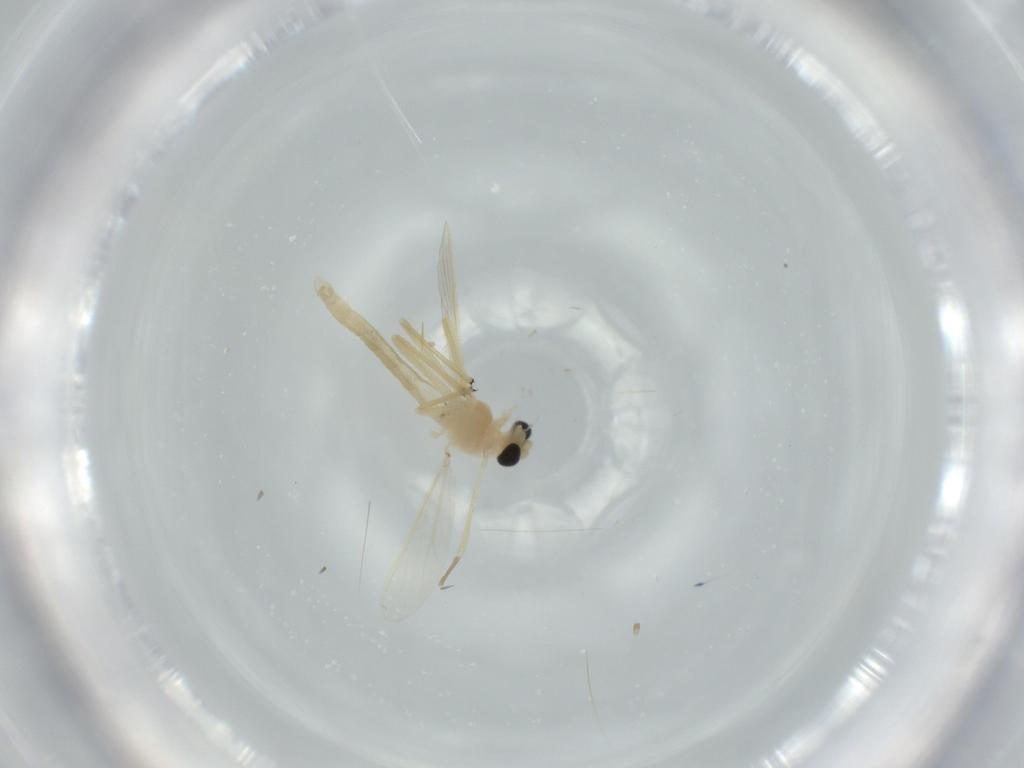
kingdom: Animalia
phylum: Arthropoda
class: Insecta
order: Diptera
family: Chironomidae
